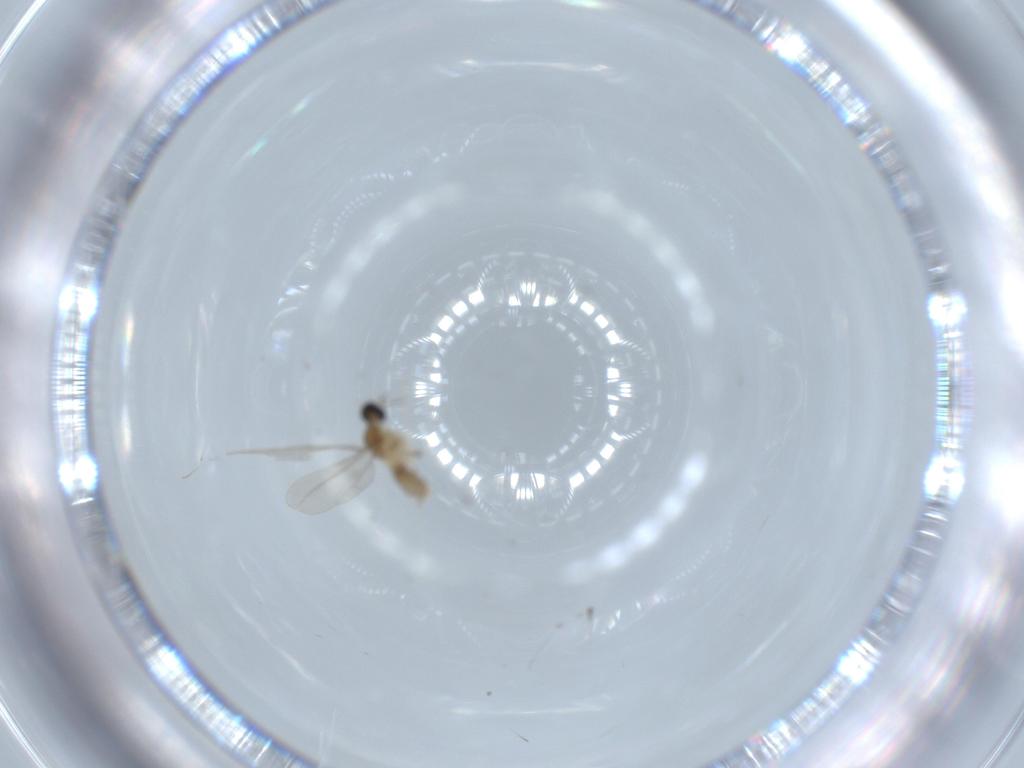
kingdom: Animalia
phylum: Arthropoda
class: Insecta
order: Diptera
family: Cecidomyiidae
